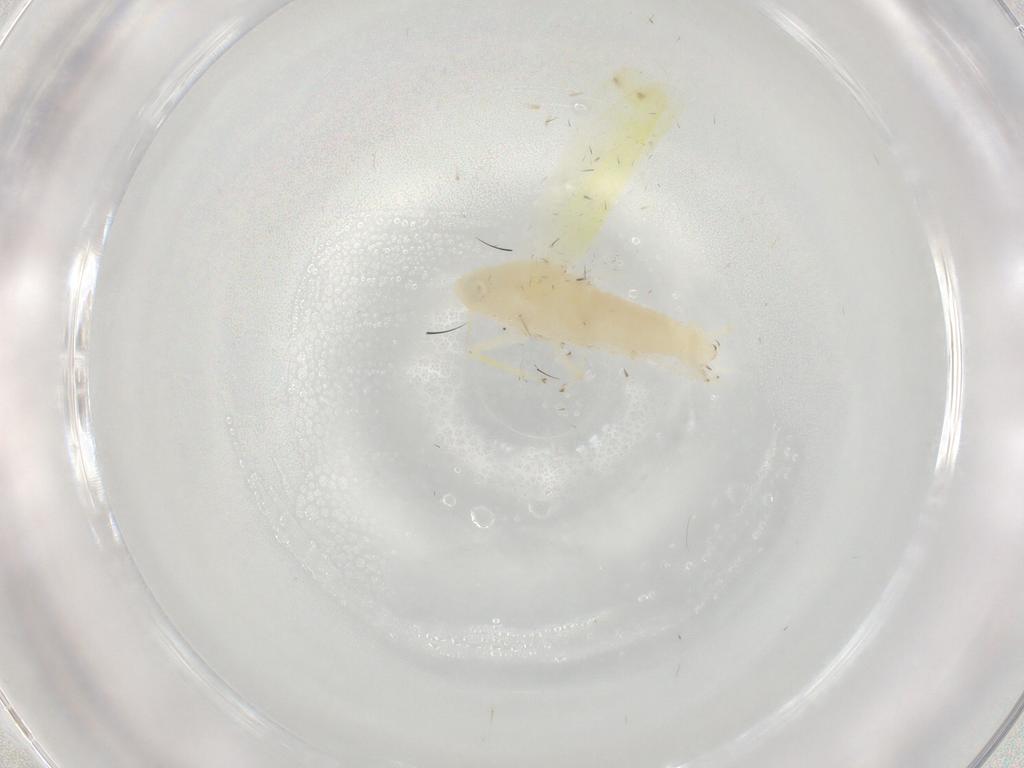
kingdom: Animalia
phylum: Arthropoda
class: Insecta
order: Hemiptera
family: Cicadellidae
